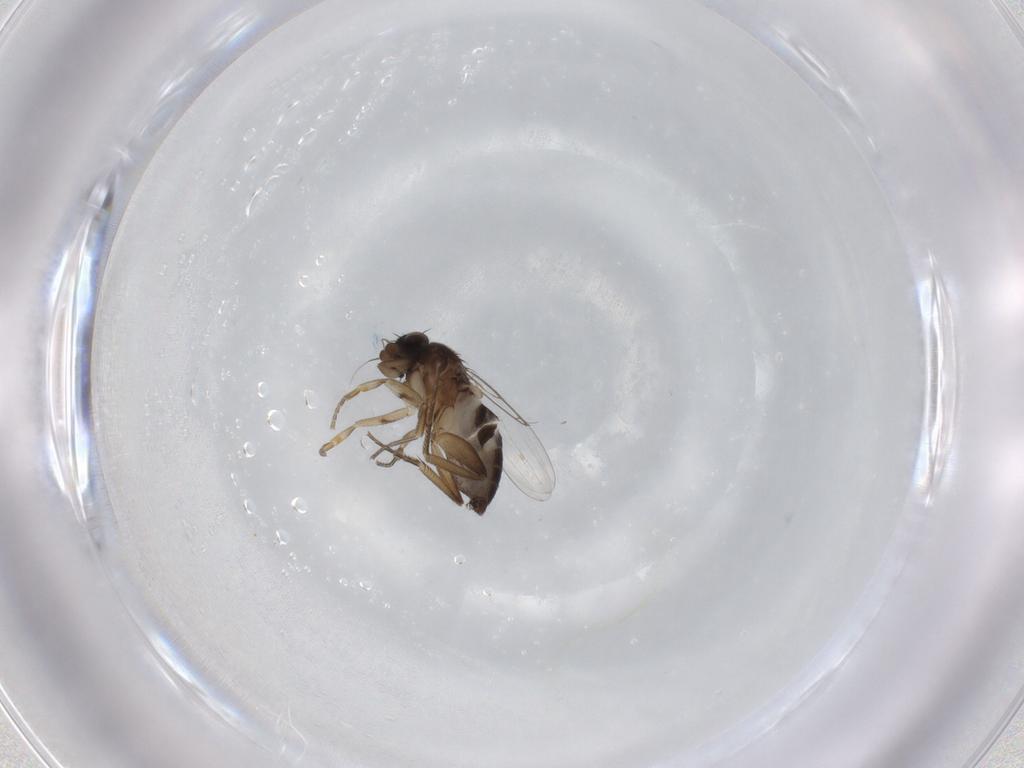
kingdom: Animalia
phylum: Arthropoda
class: Insecta
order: Diptera
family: Phoridae
